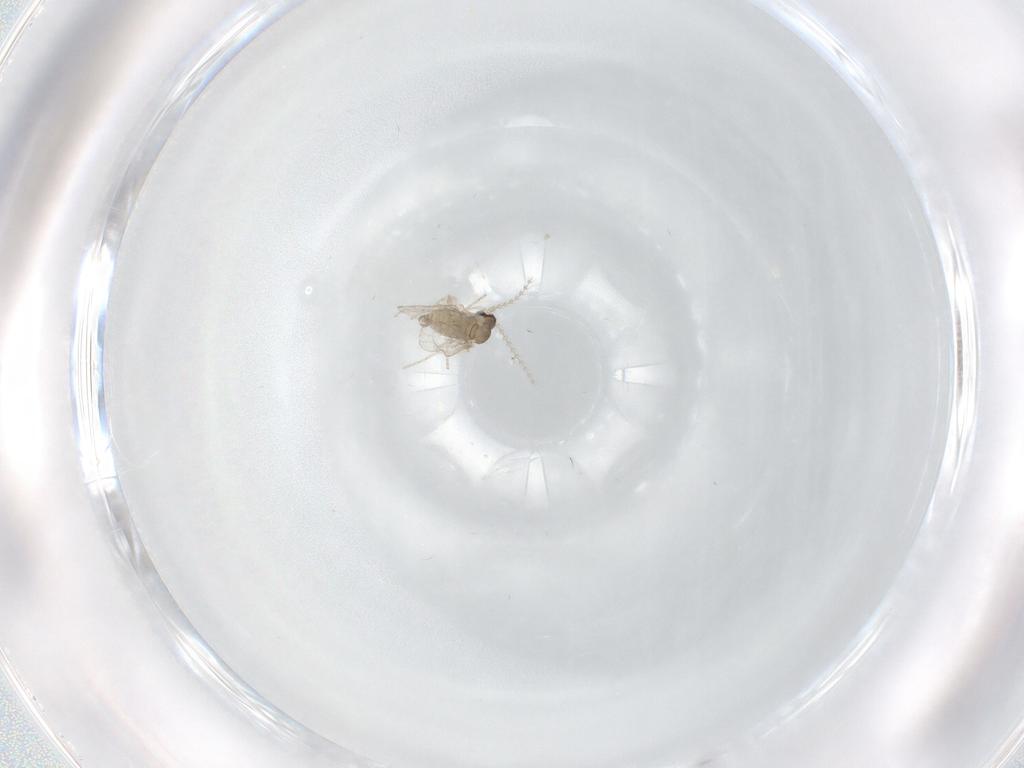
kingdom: Animalia
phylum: Arthropoda
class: Insecta
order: Diptera
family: Cecidomyiidae
